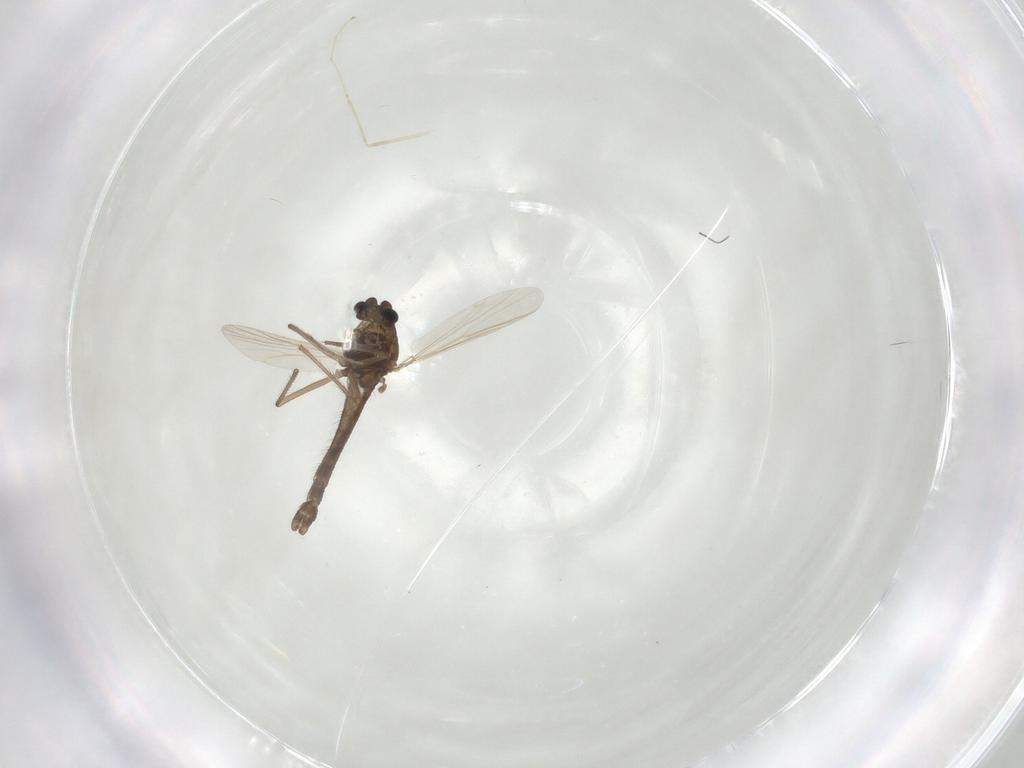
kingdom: Animalia
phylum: Arthropoda
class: Insecta
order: Diptera
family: Chironomidae
